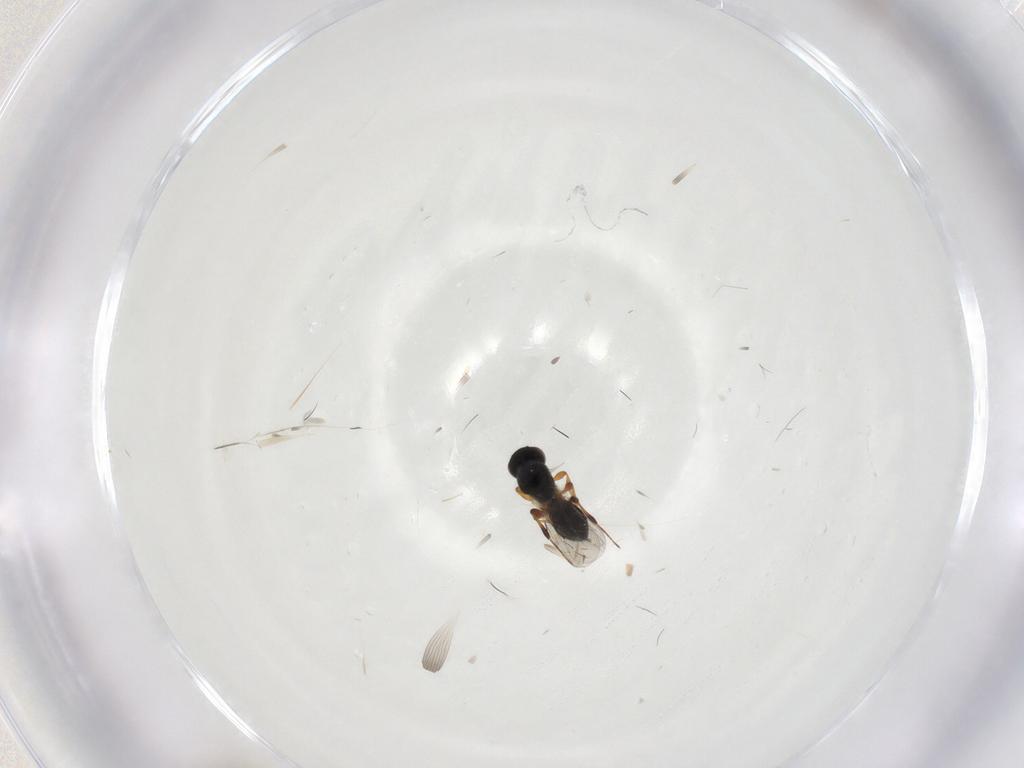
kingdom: Animalia
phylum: Arthropoda
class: Insecta
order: Hymenoptera
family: Platygastridae
